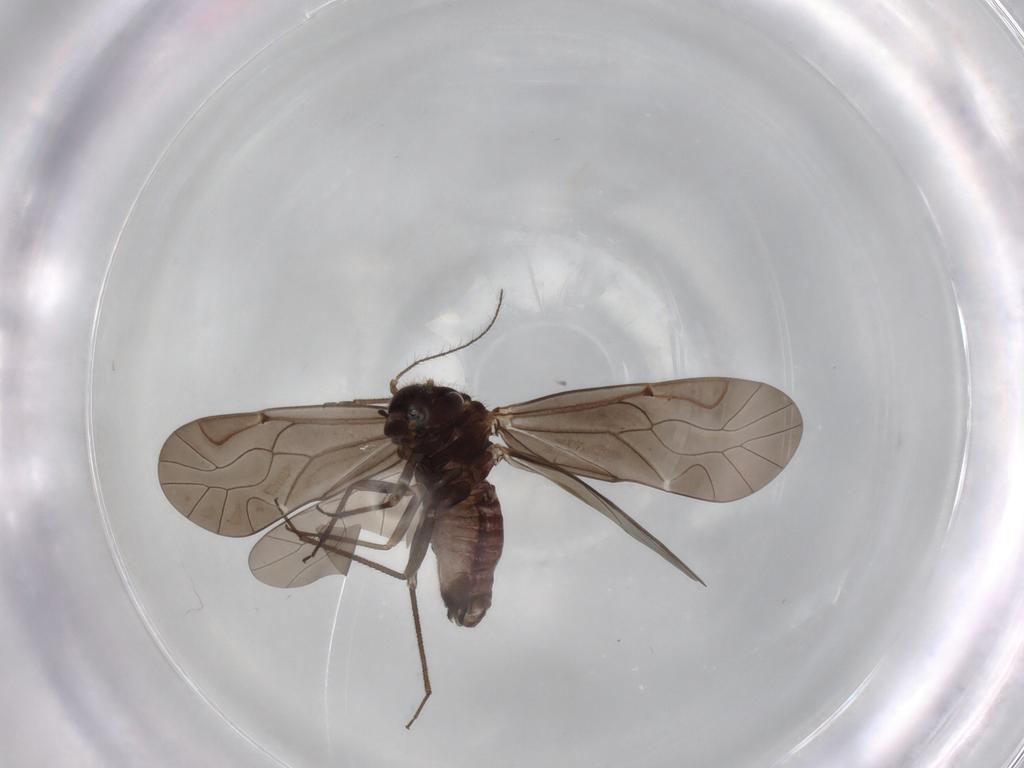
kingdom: Animalia
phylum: Arthropoda
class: Insecta
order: Psocodea
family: Lachesillidae
